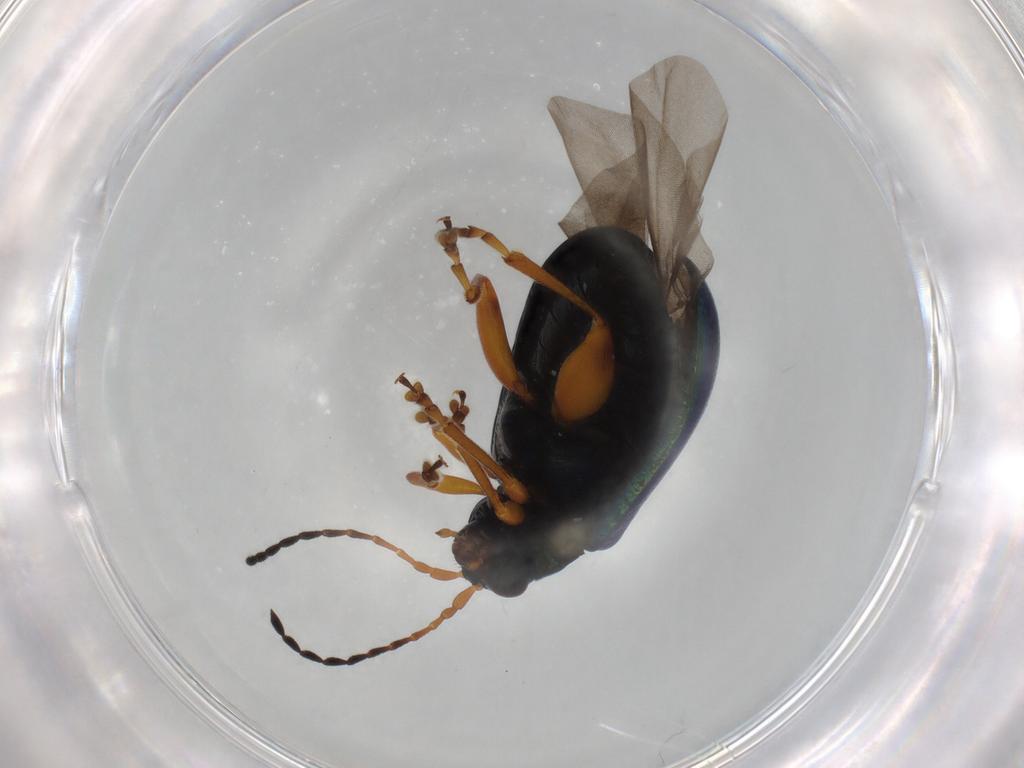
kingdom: Animalia
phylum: Arthropoda
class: Insecta
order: Coleoptera
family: Chrysomelidae
